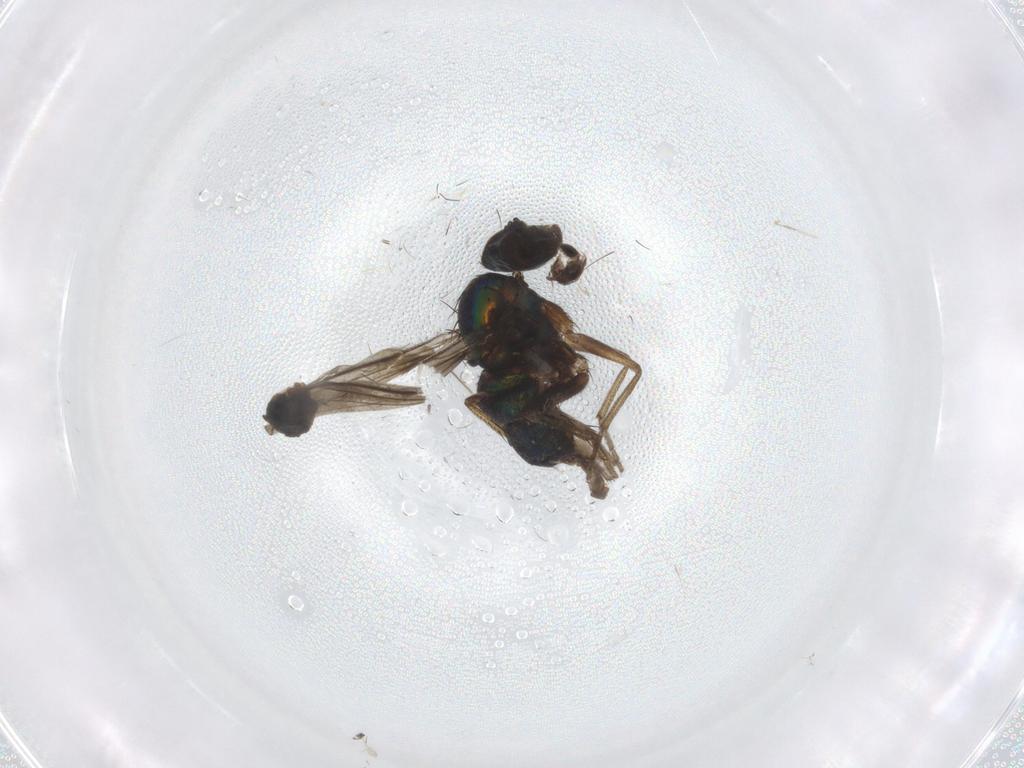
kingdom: Animalia
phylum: Arthropoda
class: Insecta
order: Diptera
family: Cecidomyiidae
